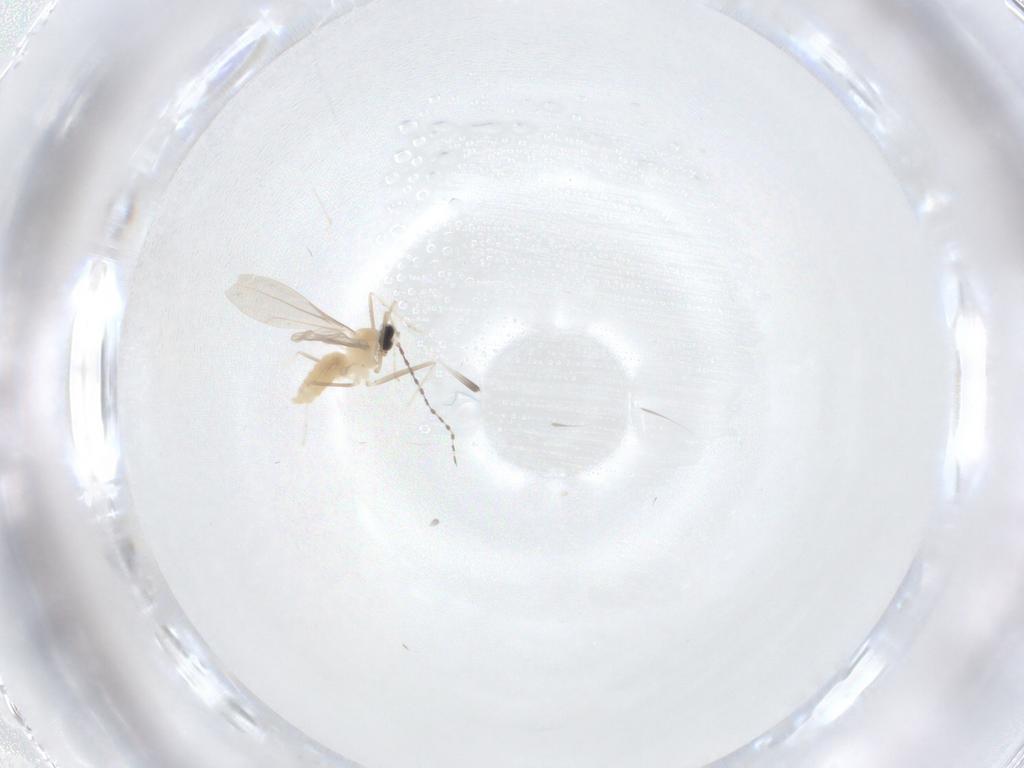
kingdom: Animalia
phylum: Arthropoda
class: Insecta
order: Diptera
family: Cecidomyiidae
